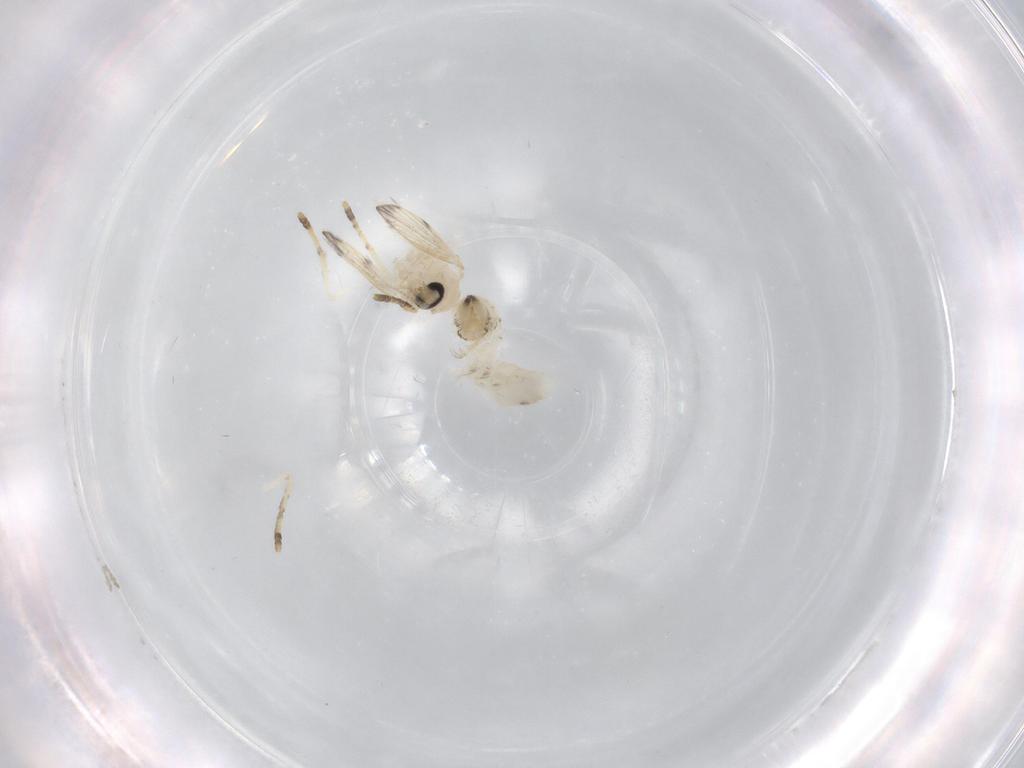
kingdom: Animalia
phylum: Arthropoda
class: Insecta
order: Diptera
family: Psychodidae
